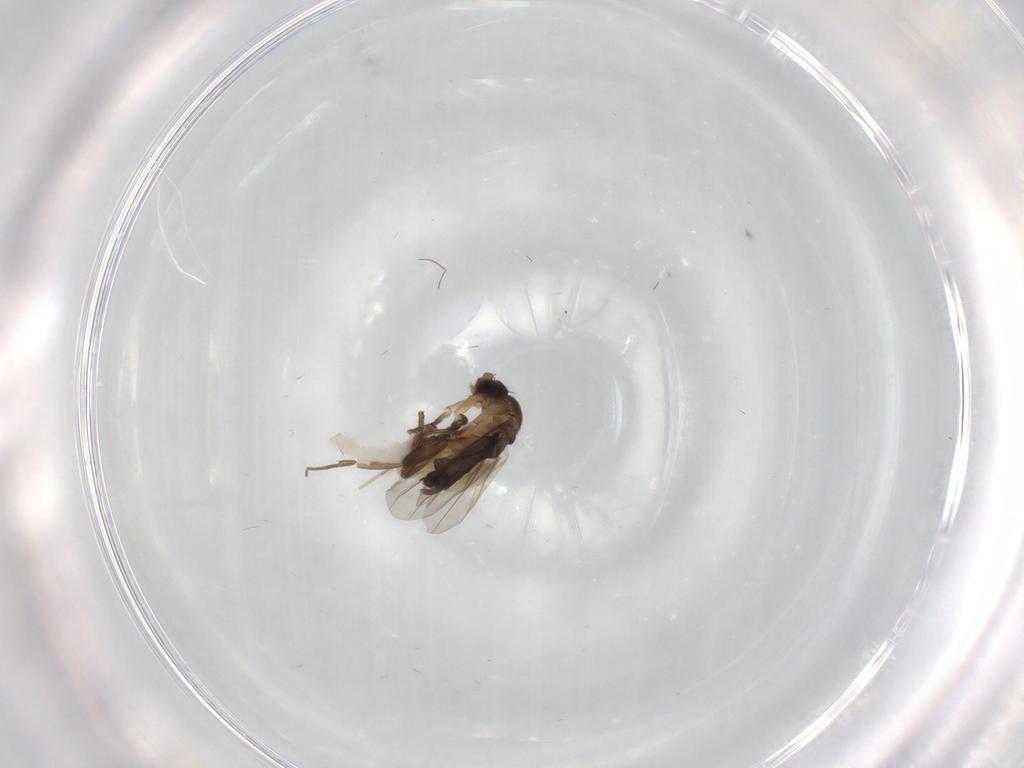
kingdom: Animalia
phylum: Arthropoda
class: Insecta
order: Diptera
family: Phoridae
